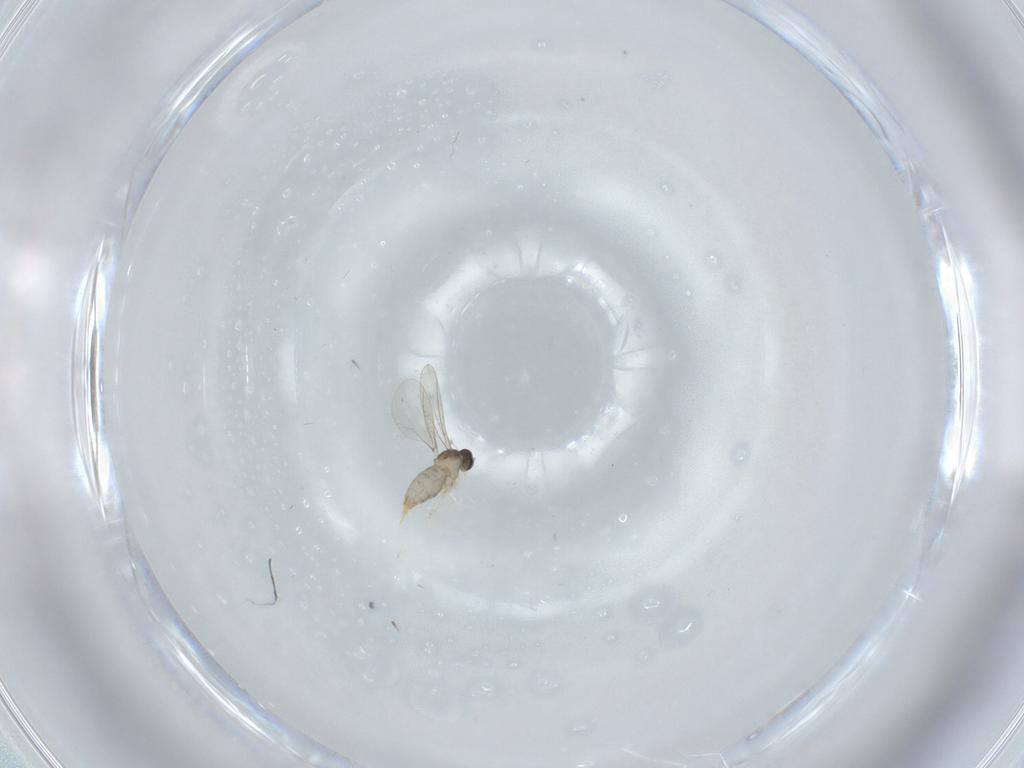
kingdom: Animalia
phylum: Arthropoda
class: Insecta
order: Diptera
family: Cecidomyiidae
